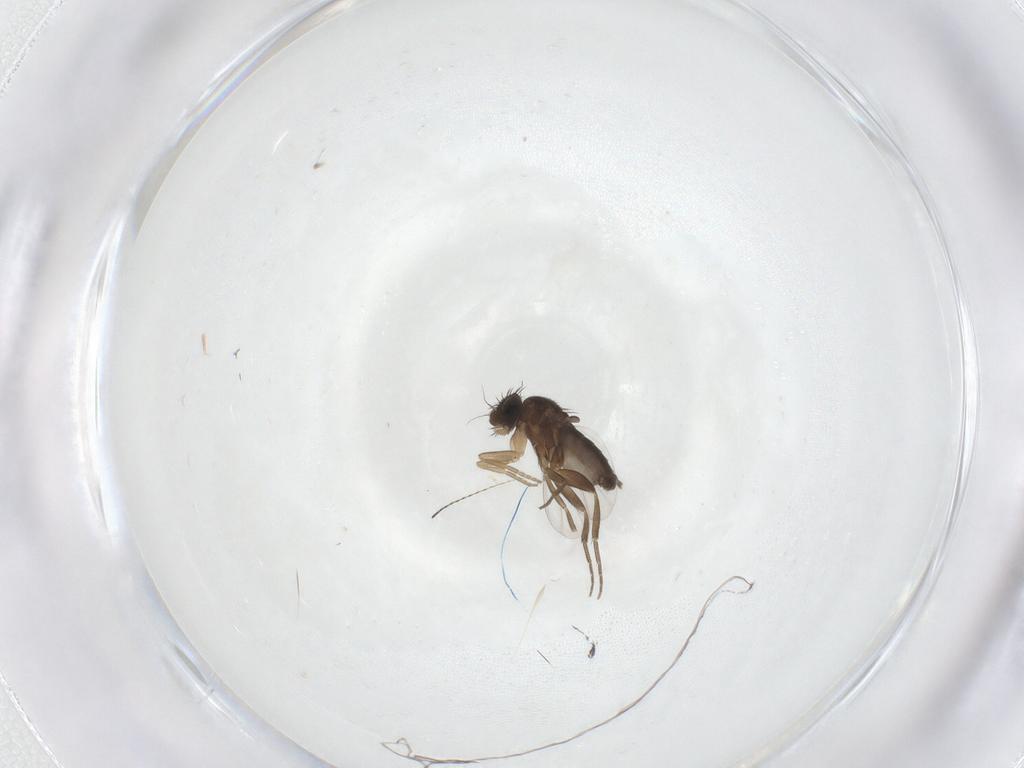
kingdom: Animalia
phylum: Arthropoda
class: Insecta
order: Diptera
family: Phoridae
